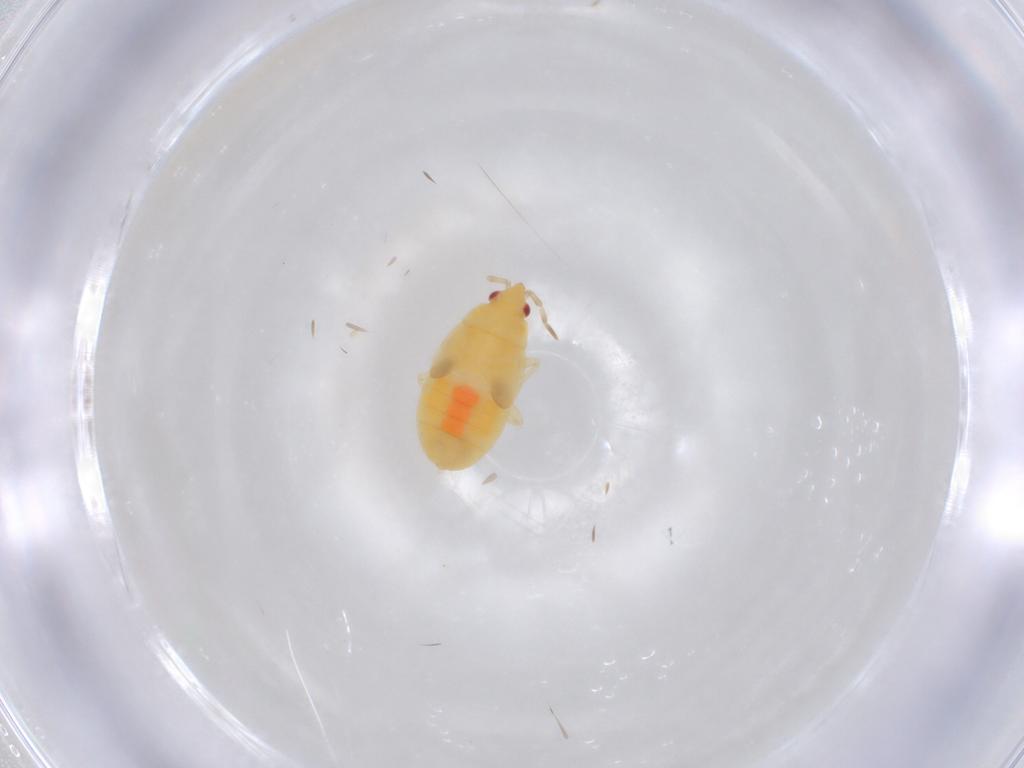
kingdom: Animalia
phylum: Arthropoda
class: Insecta
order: Hemiptera
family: Anthocoridae
